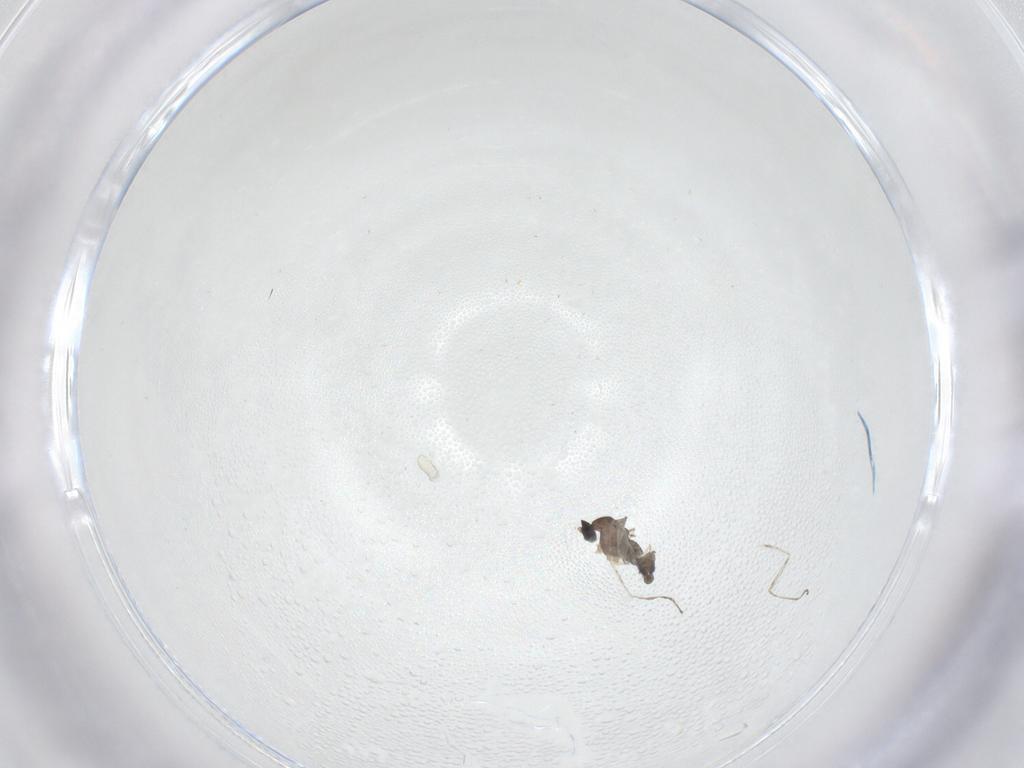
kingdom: Animalia
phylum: Arthropoda
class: Insecta
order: Diptera
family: Cecidomyiidae
